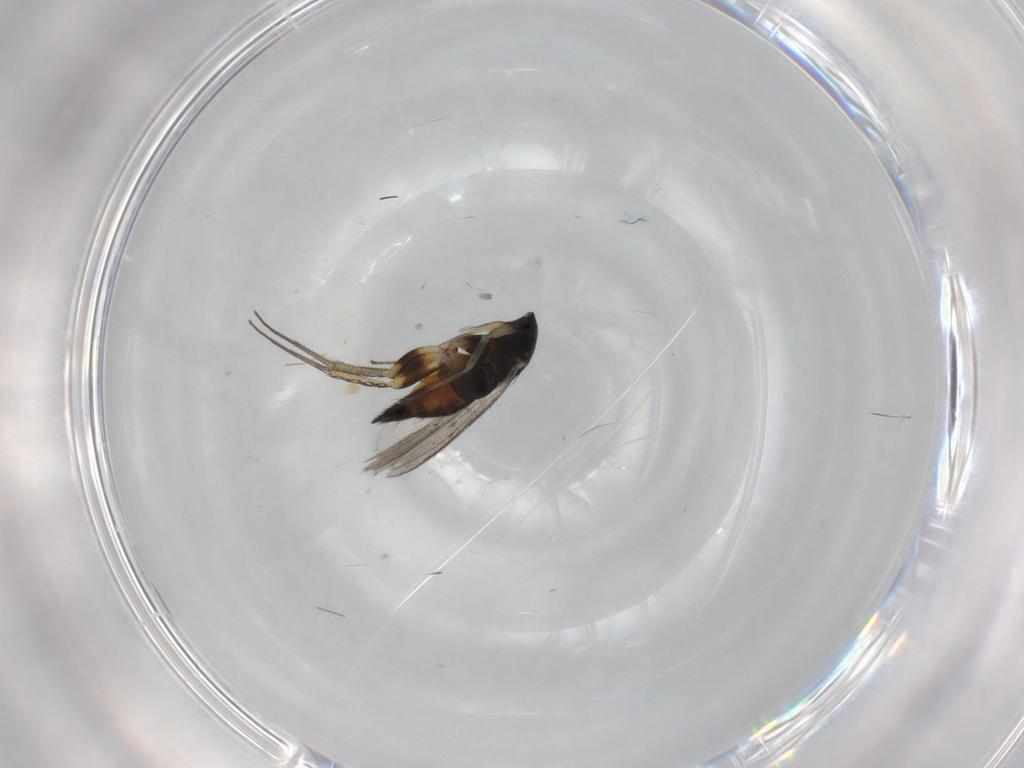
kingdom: Animalia
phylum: Arthropoda
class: Insecta
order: Hymenoptera
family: Eulophidae
